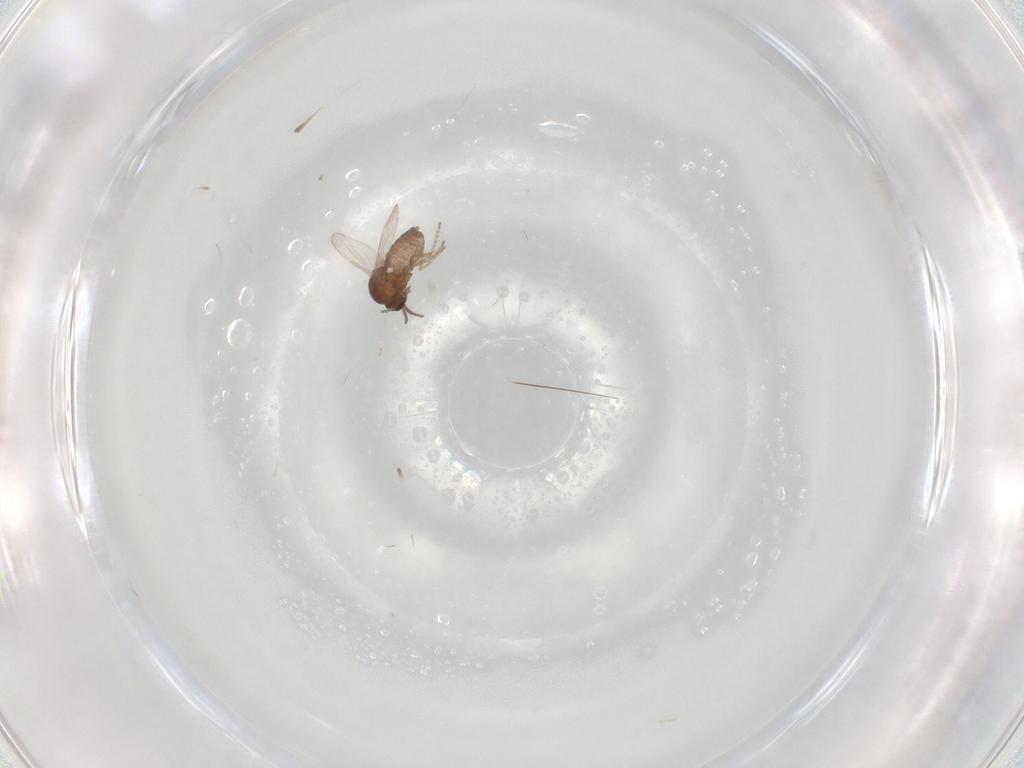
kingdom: Animalia
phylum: Arthropoda
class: Insecta
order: Diptera
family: Ceratopogonidae
